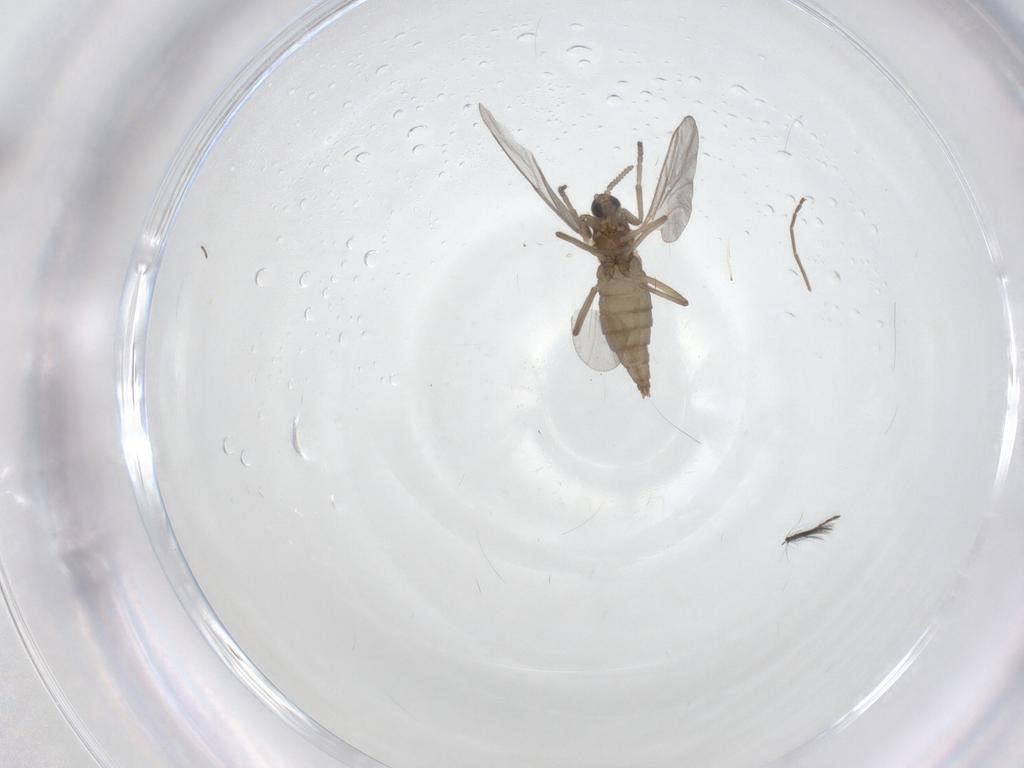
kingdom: Animalia
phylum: Arthropoda
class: Insecta
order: Diptera
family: Cecidomyiidae
